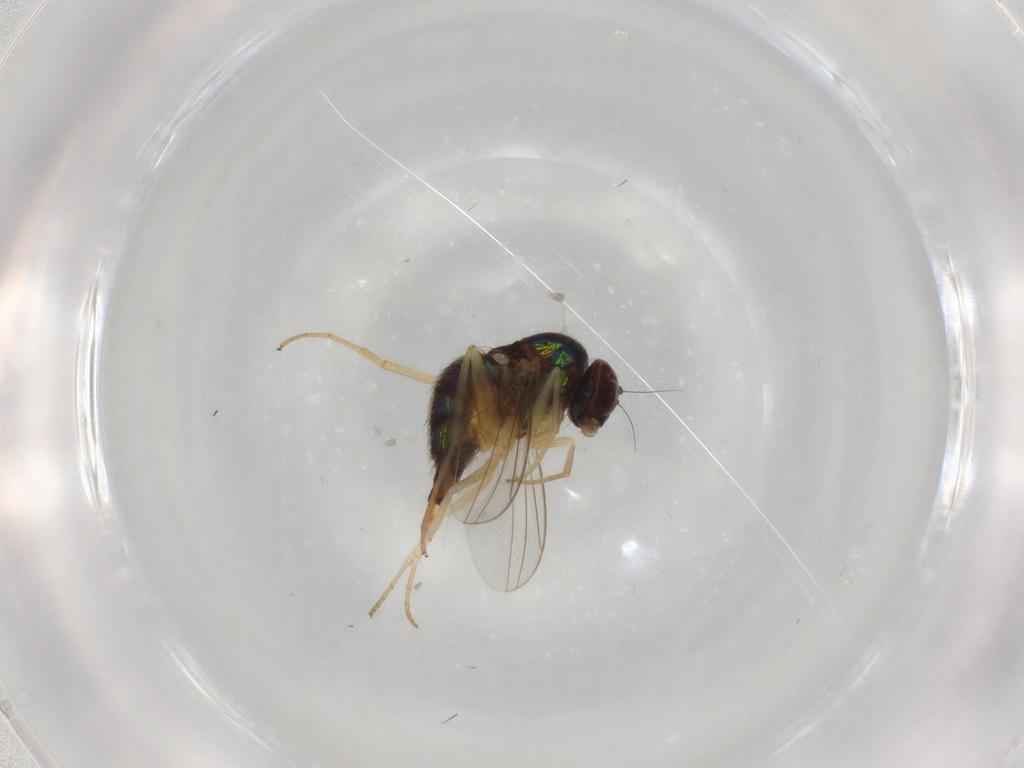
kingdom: Animalia
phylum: Arthropoda
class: Insecta
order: Diptera
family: Dolichopodidae
